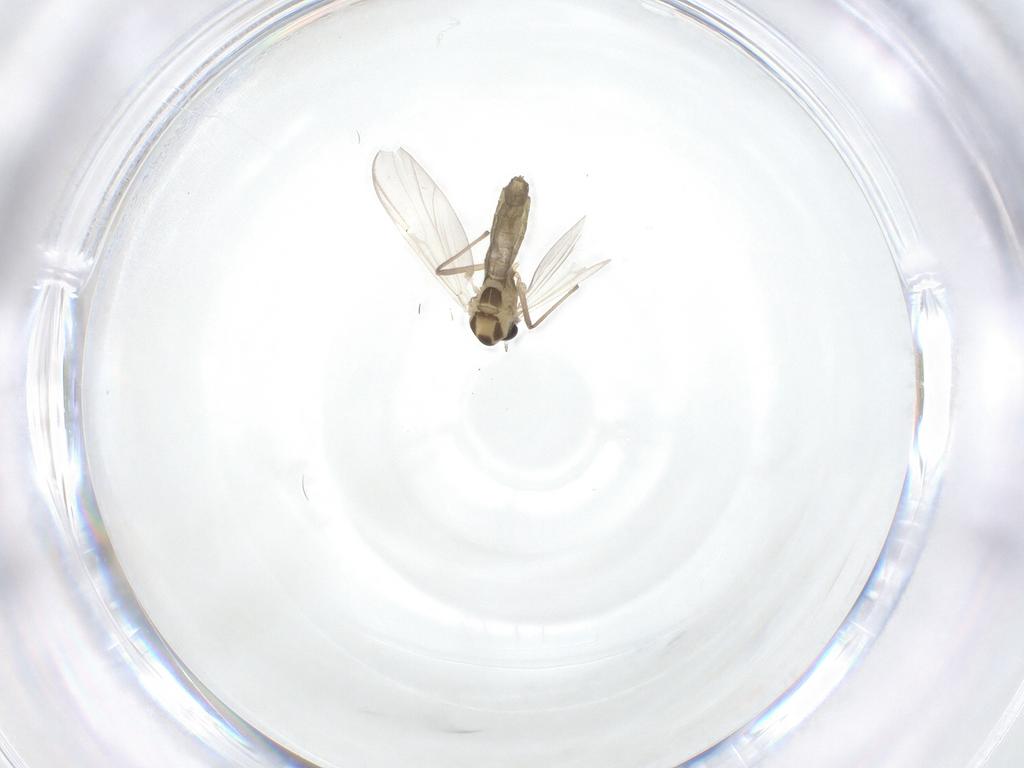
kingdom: Animalia
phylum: Arthropoda
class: Insecta
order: Diptera
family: Chironomidae
